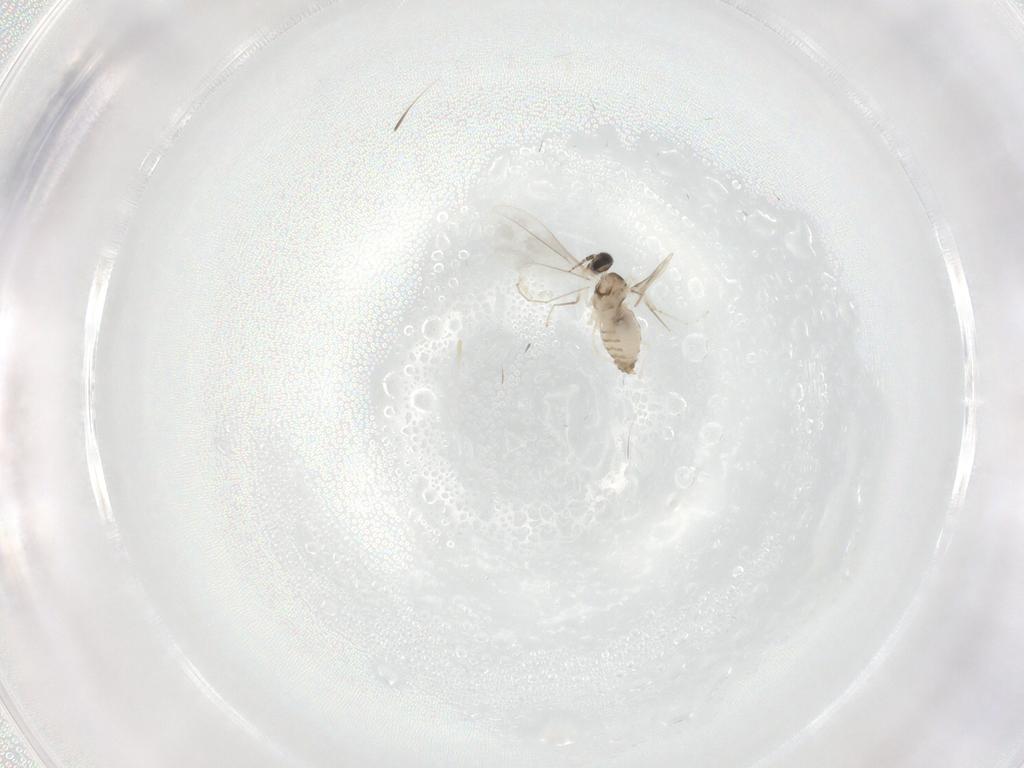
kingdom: Animalia
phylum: Arthropoda
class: Insecta
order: Diptera
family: Cecidomyiidae
